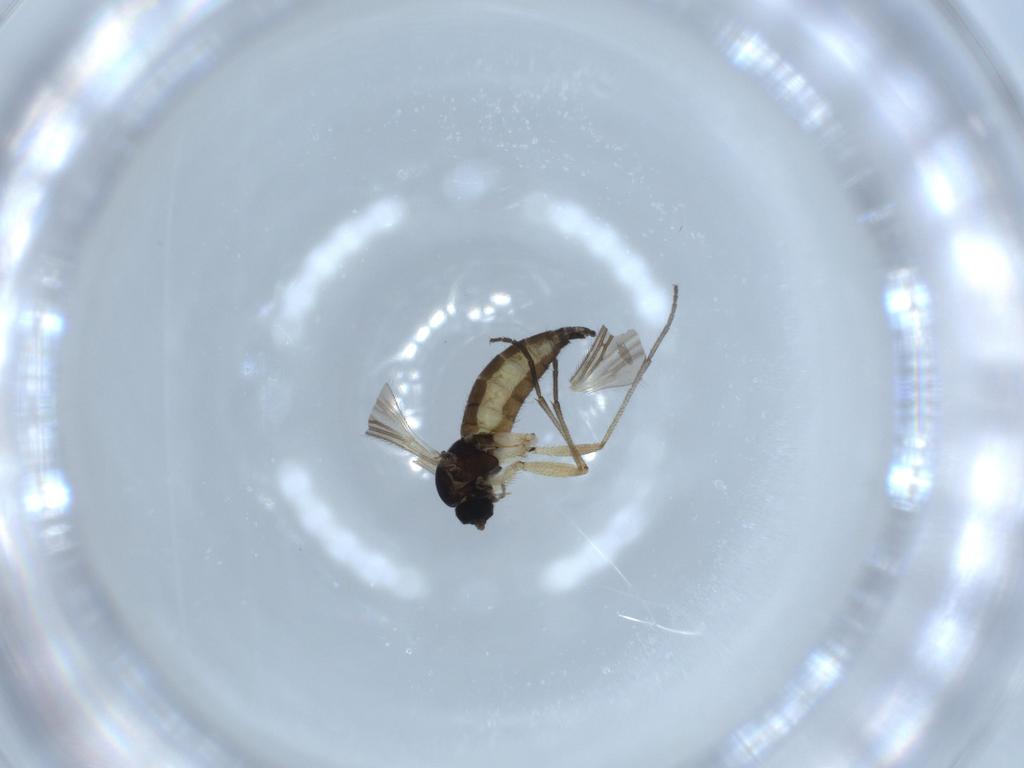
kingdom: Animalia
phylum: Arthropoda
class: Insecta
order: Diptera
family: Sciaridae
